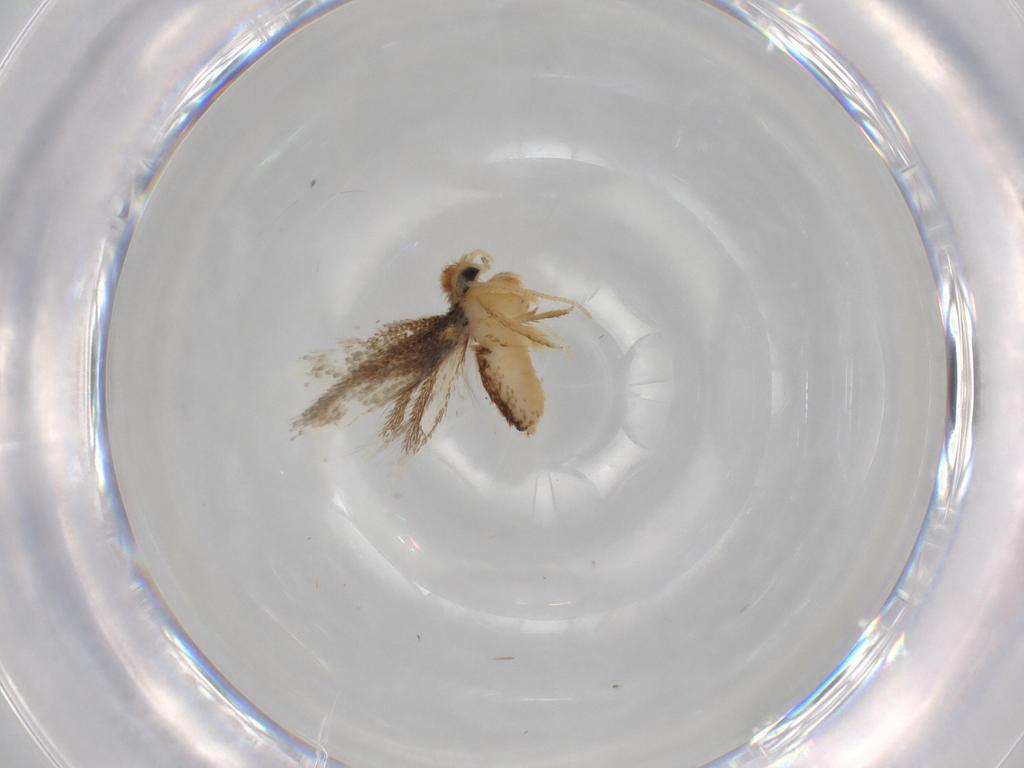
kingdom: Animalia
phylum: Arthropoda
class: Insecta
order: Lepidoptera
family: Nepticulidae
